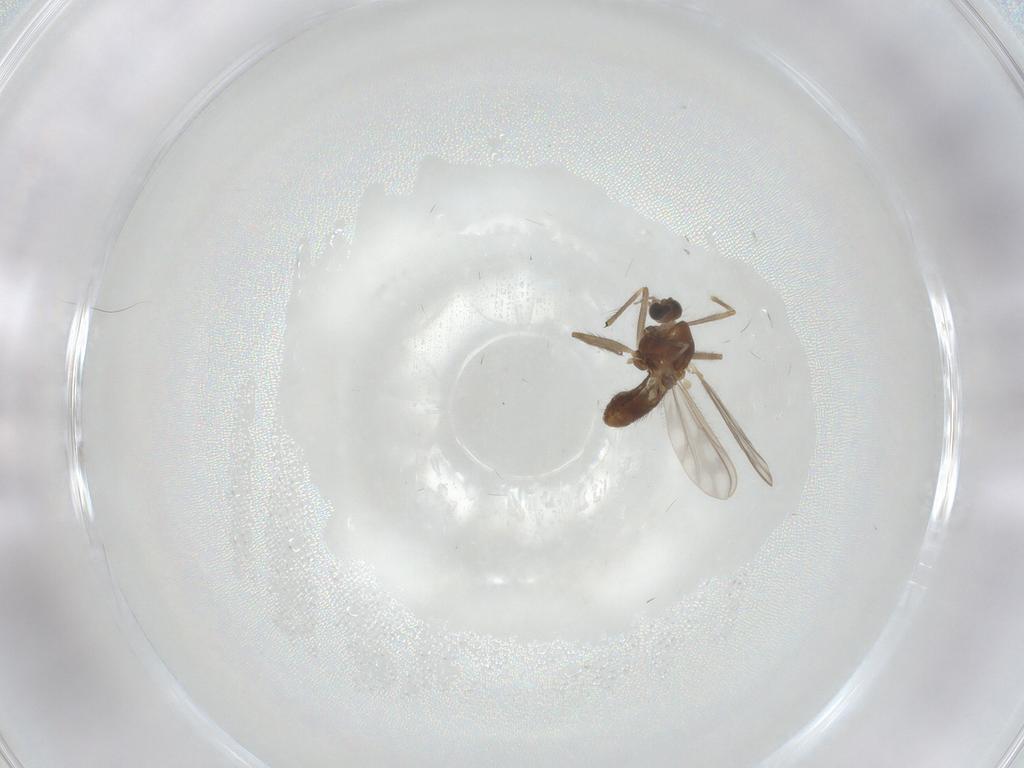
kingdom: Animalia
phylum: Arthropoda
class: Insecta
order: Diptera
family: Chironomidae
